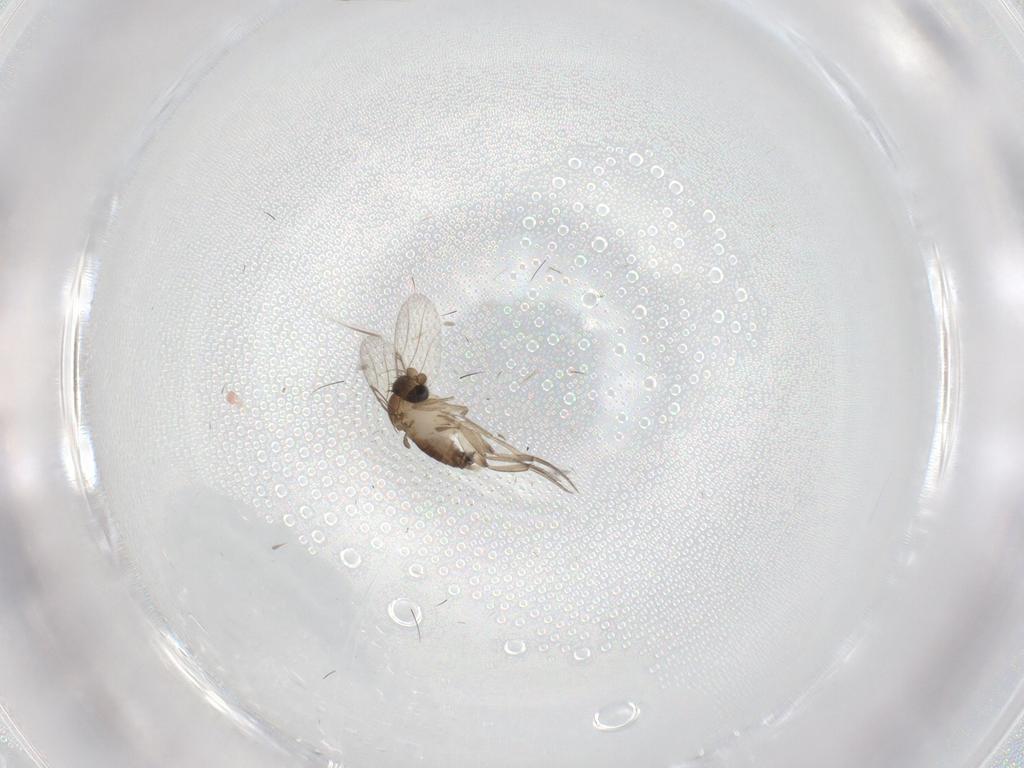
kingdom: Animalia
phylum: Arthropoda
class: Insecta
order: Diptera
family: Phoridae
